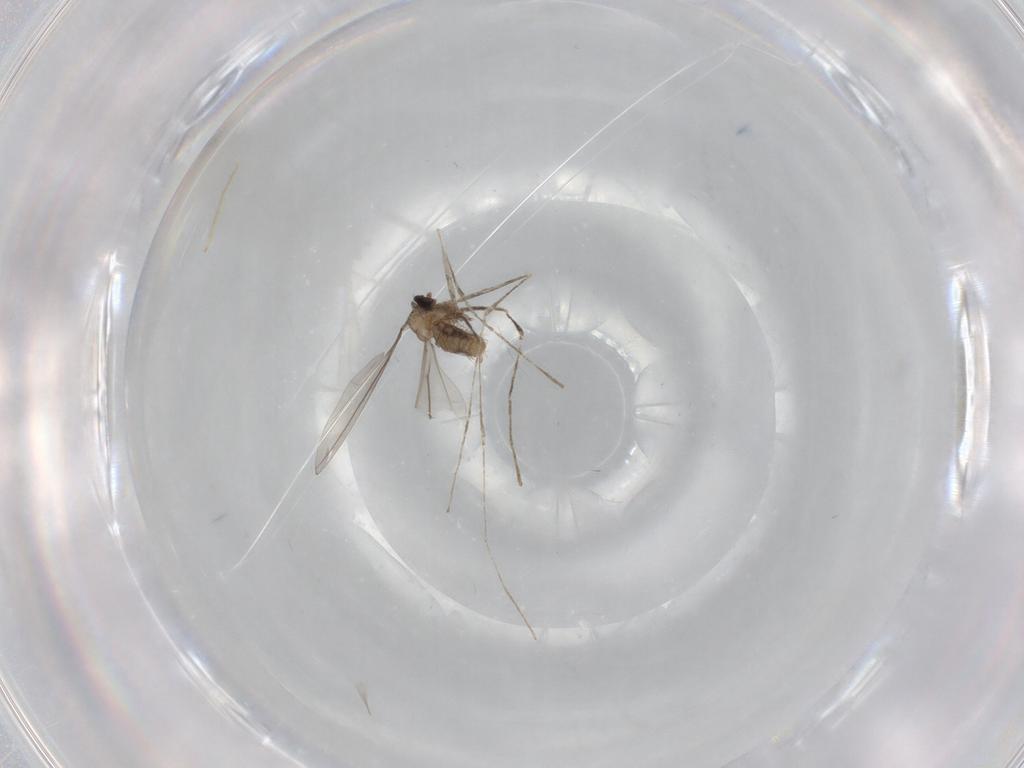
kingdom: Animalia
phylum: Arthropoda
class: Insecta
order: Diptera
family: Cecidomyiidae
